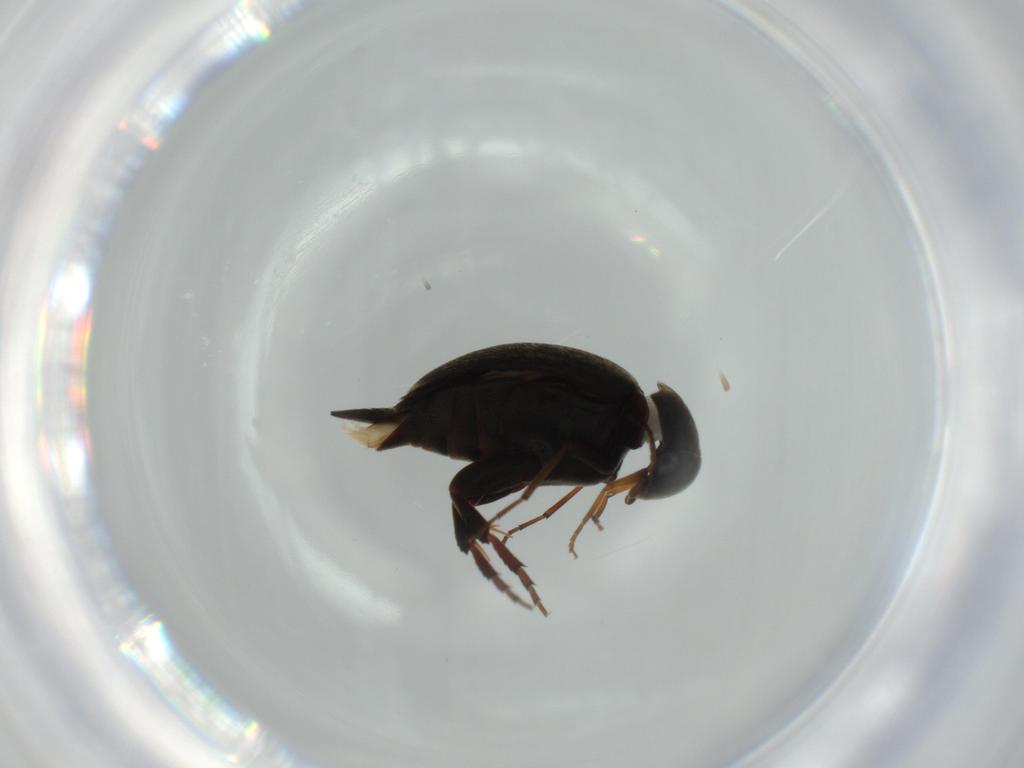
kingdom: Animalia
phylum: Arthropoda
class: Insecta
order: Coleoptera
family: Mordellidae
